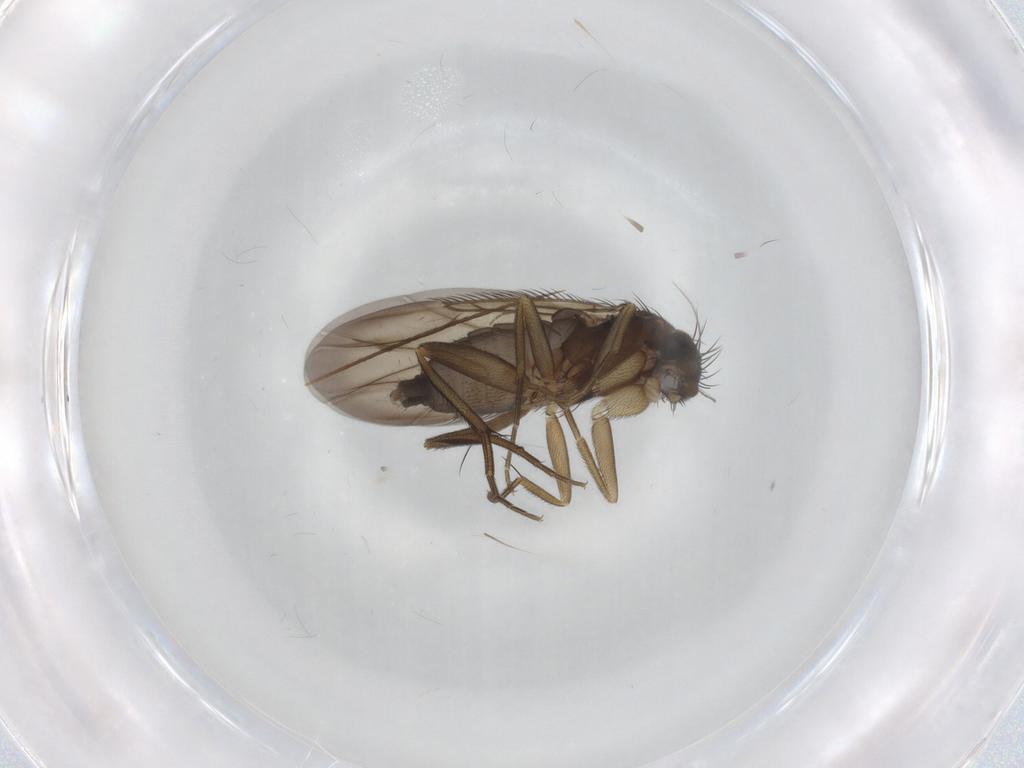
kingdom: Animalia
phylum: Arthropoda
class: Insecta
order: Diptera
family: Phoridae
